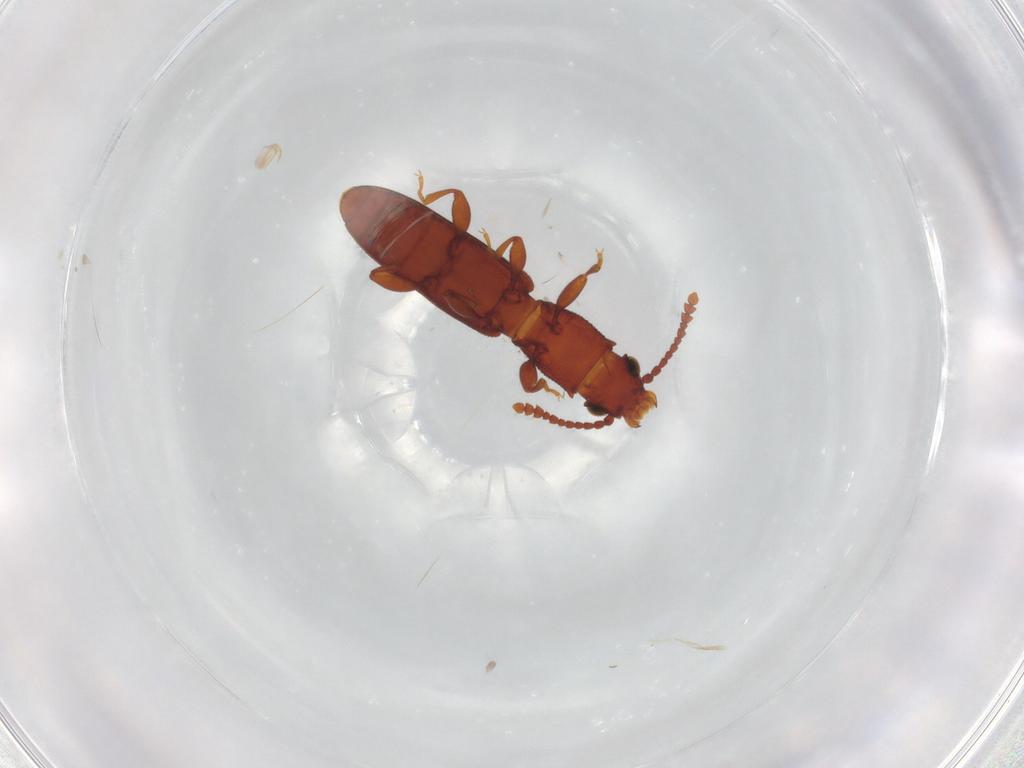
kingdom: Animalia
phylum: Arthropoda
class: Insecta
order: Coleoptera
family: Silvanidae
